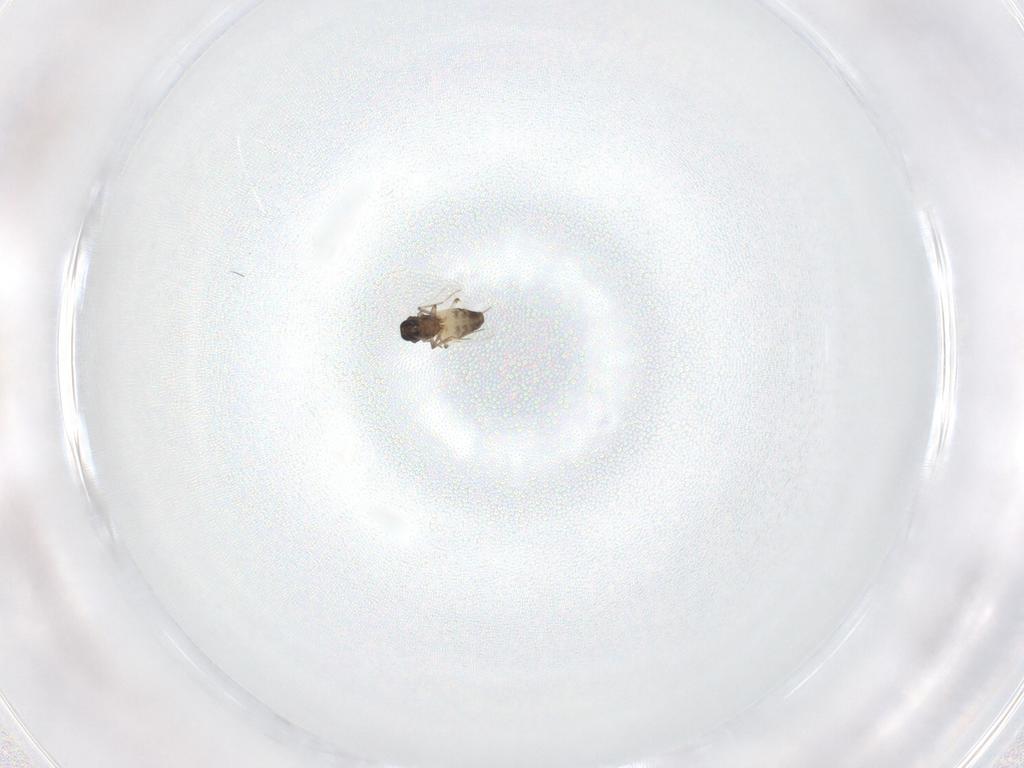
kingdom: Animalia
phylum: Arthropoda
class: Insecta
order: Diptera
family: Ceratopogonidae
